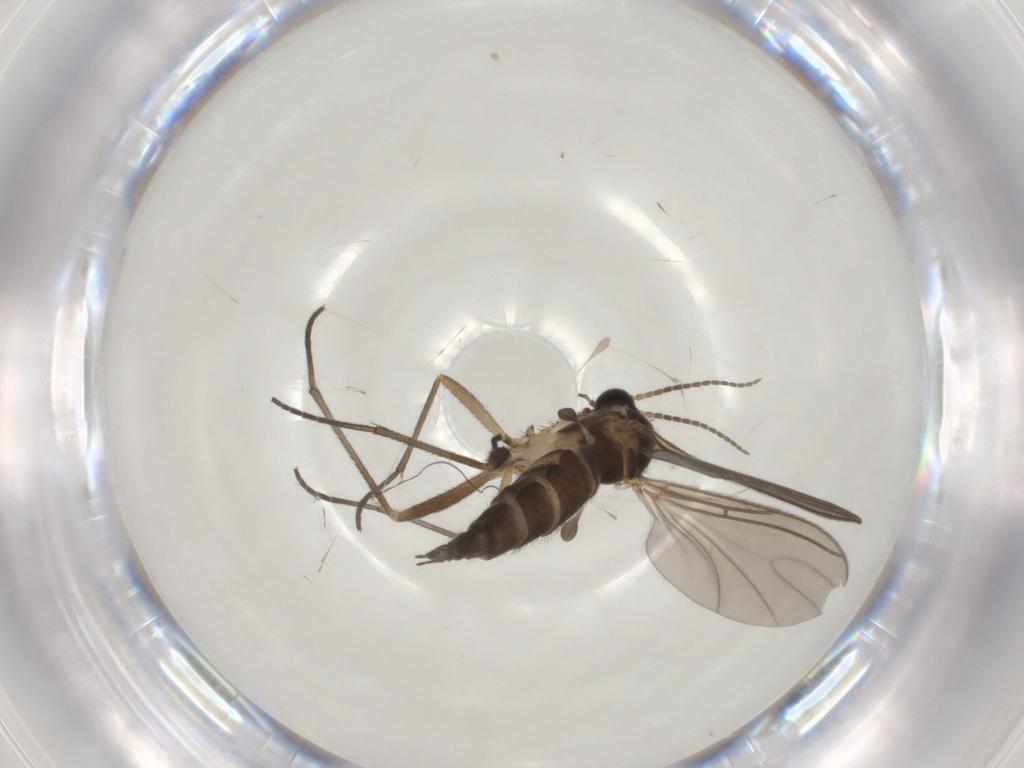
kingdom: Animalia
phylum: Arthropoda
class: Insecta
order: Diptera
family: Sciaridae
